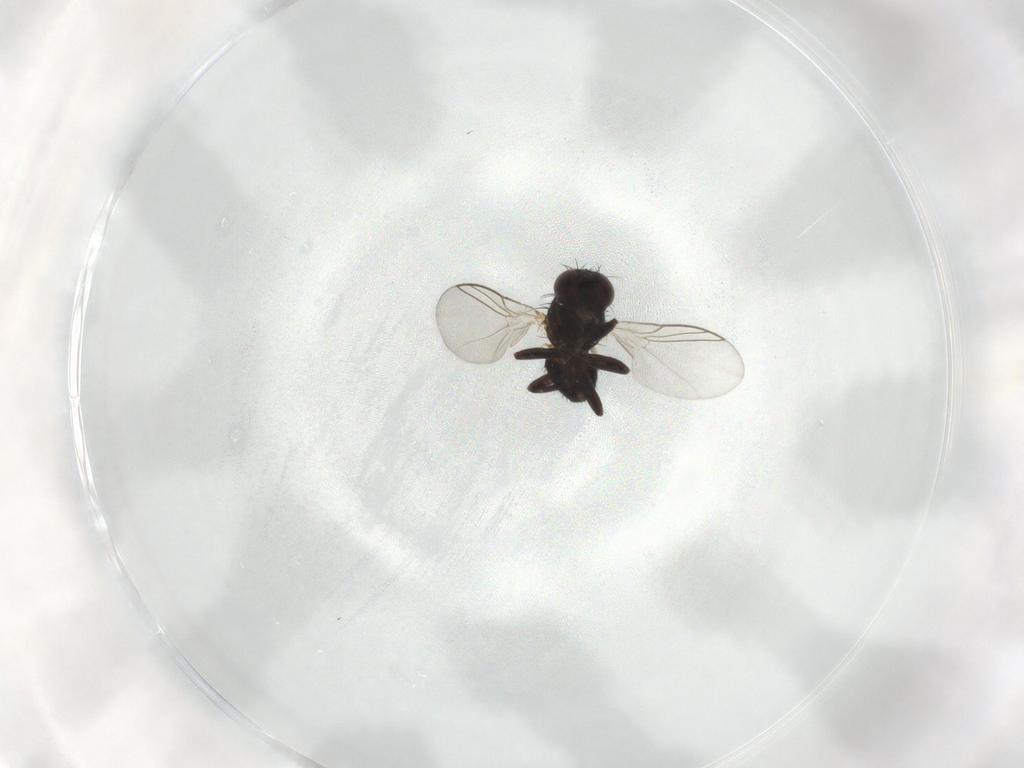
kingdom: Animalia
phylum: Arthropoda
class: Insecta
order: Diptera
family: Agromyzidae
